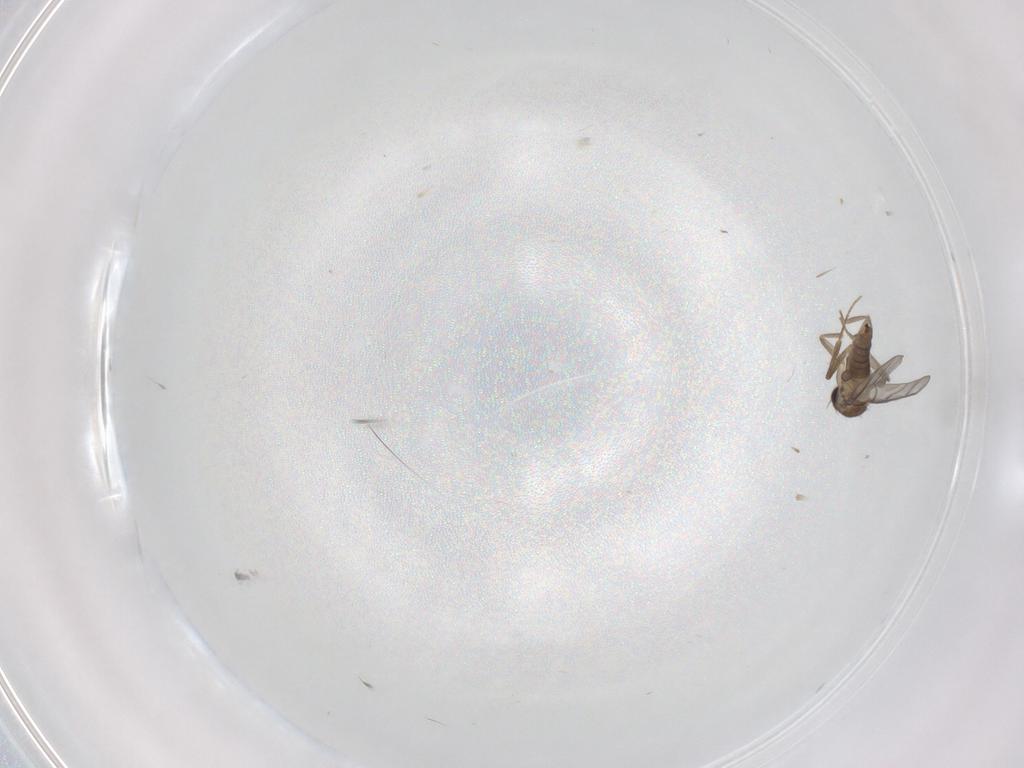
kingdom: Animalia
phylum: Arthropoda
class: Insecta
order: Diptera
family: Ceratopogonidae
